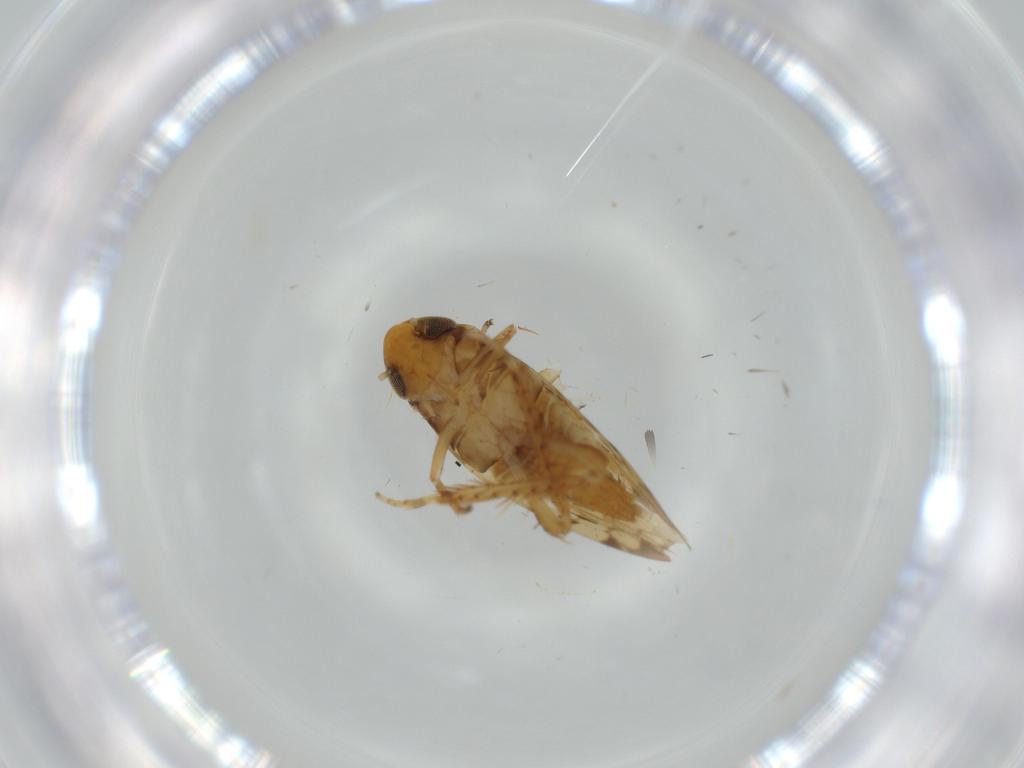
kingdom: Animalia
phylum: Arthropoda
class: Insecta
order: Hemiptera
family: Cicadellidae
